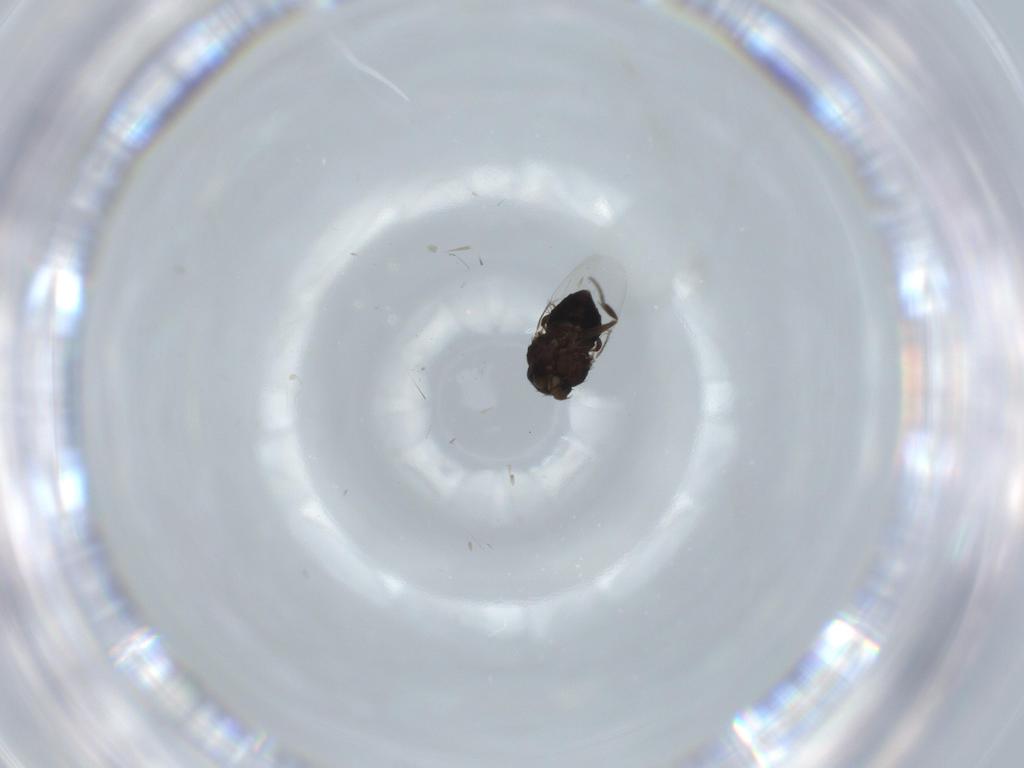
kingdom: Animalia
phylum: Arthropoda
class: Insecta
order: Diptera
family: Phoridae
